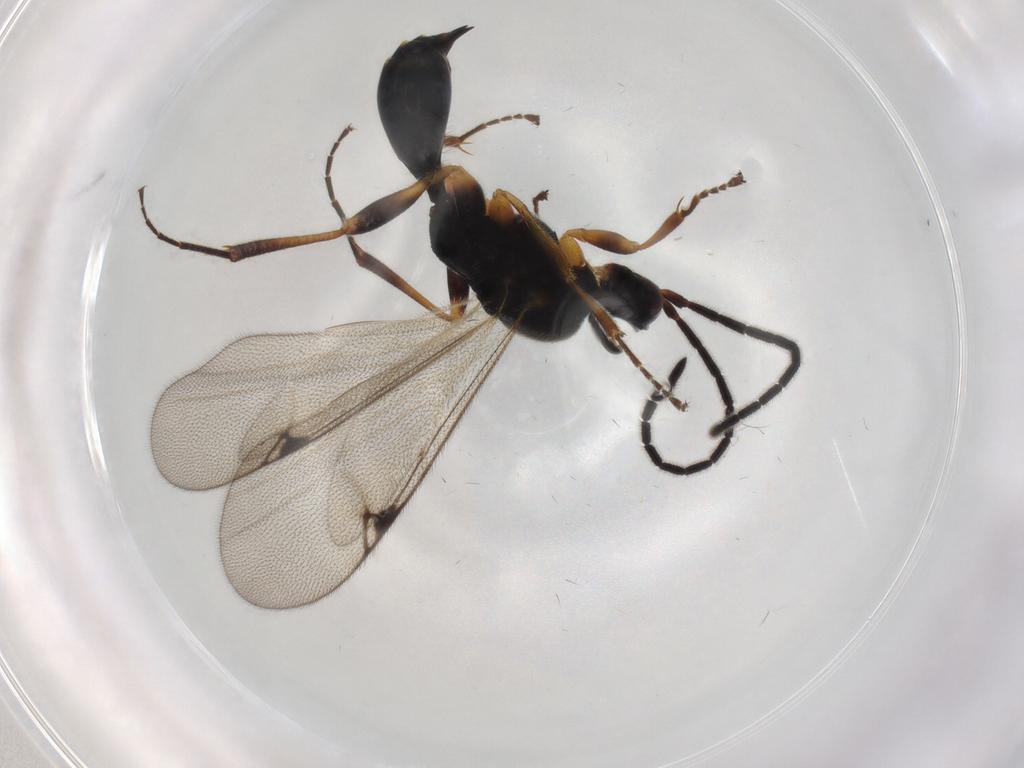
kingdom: Animalia
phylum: Arthropoda
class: Insecta
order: Hymenoptera
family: Proctotrupidae
